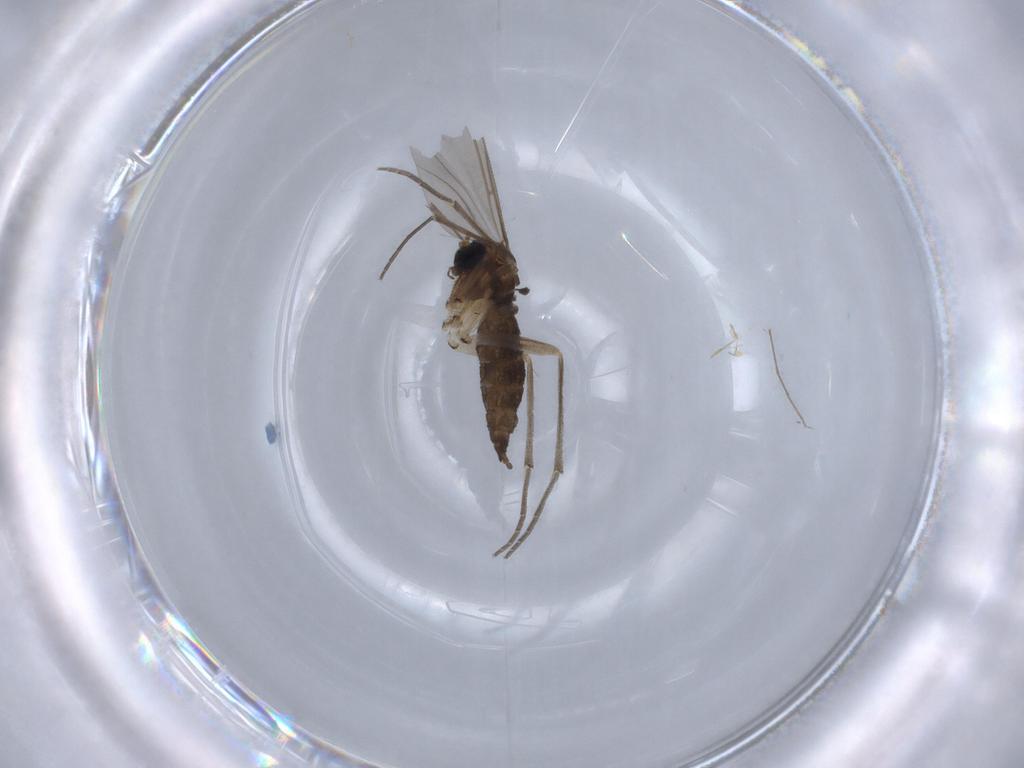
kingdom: Animalia
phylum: Arthropoda
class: Insecta
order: Diptera
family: Sciaridae
